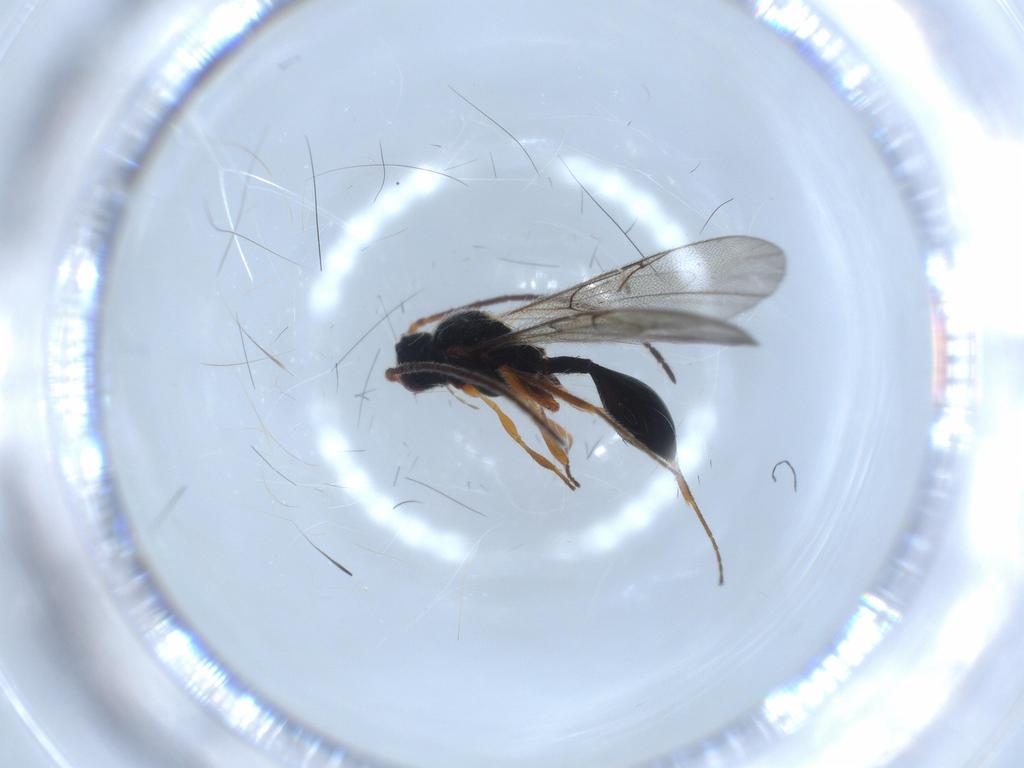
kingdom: Animalia
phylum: Arthropoda
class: Insecta
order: Hymenoptera
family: Diapriidae
